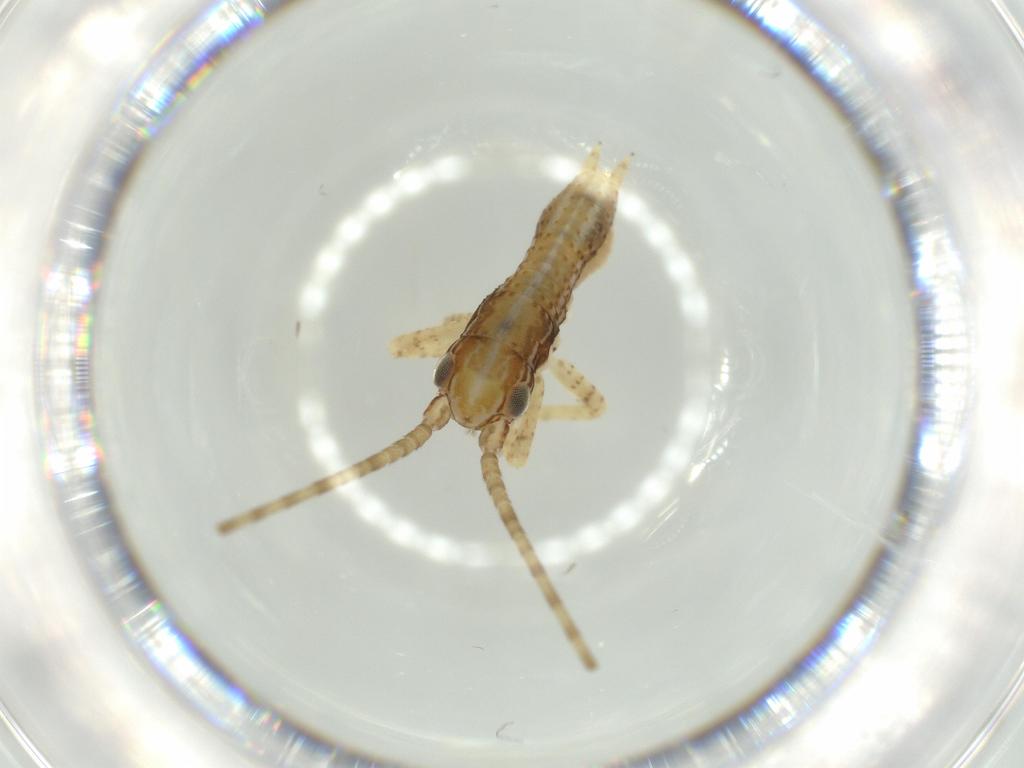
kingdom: Animalia
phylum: Arthropoda
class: Insecta
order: Orthoptera
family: Gryllidae
